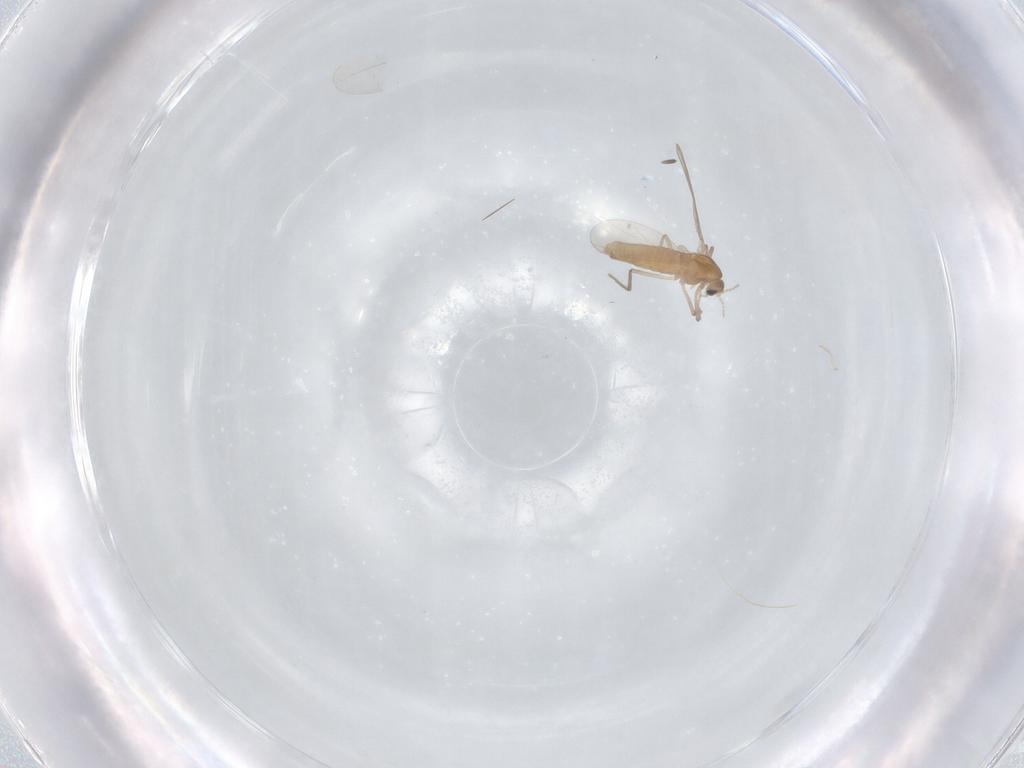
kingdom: Animalia
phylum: Arthropoda
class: Insecta
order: Diptera
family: Chironomidae
